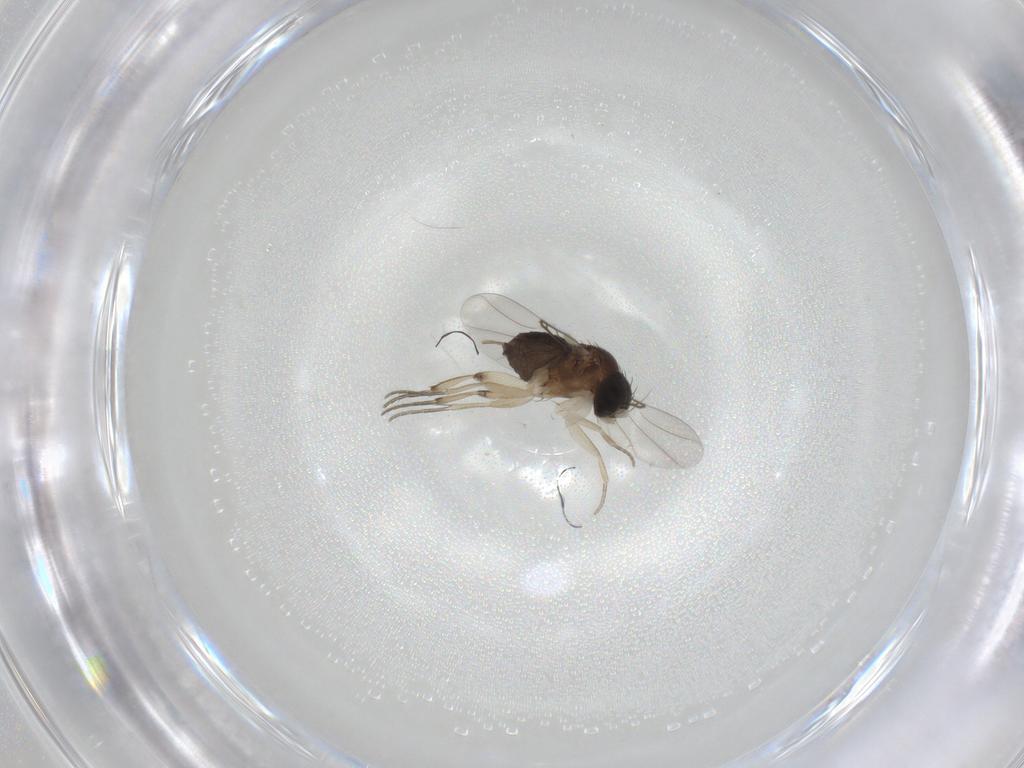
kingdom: Animalia
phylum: Arthropoda
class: Insecta
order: Diptera
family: Phoridae
